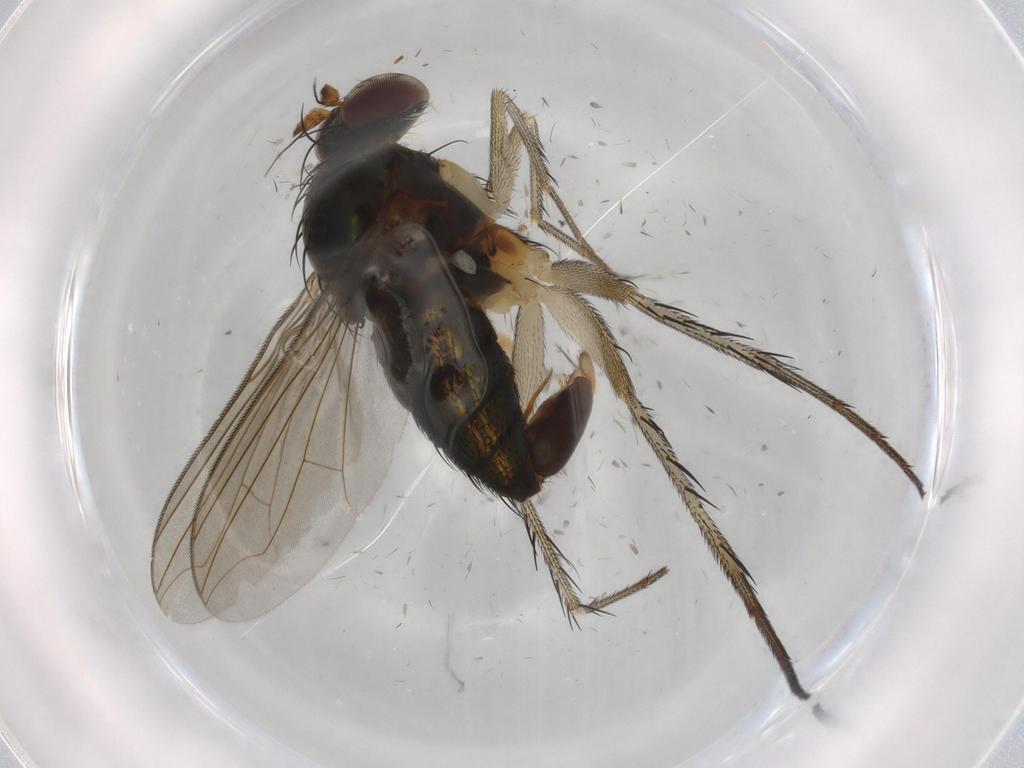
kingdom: Animalia
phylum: Arthropoda
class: Insecta
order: Diptera
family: Dolichopodidae
